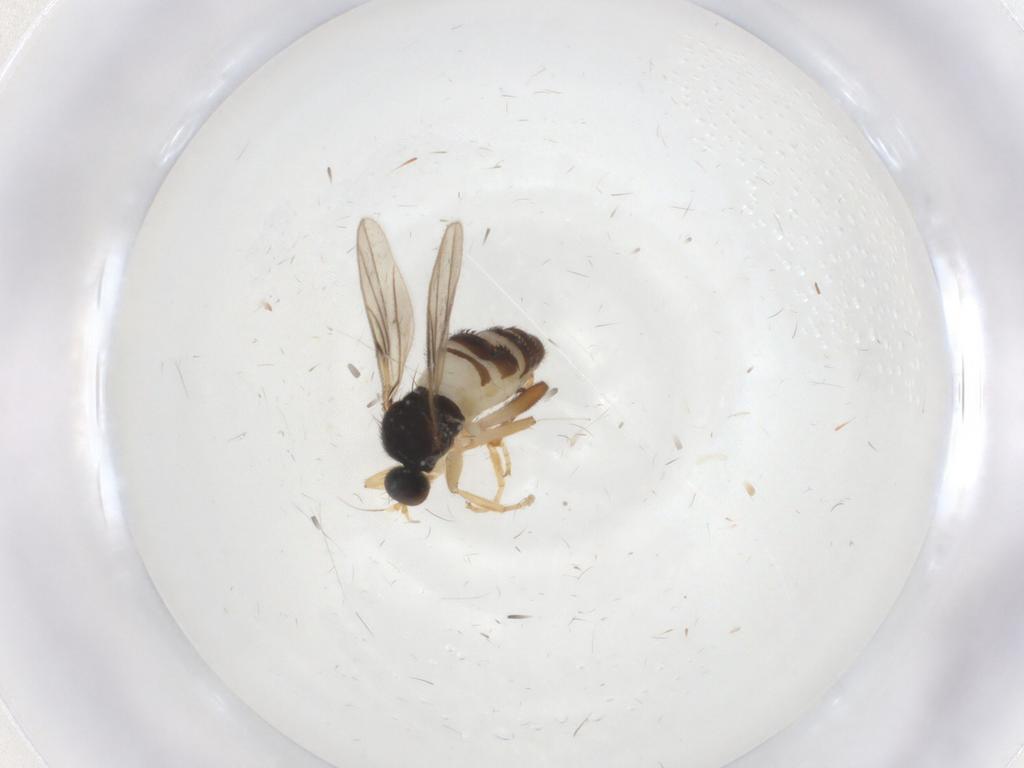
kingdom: Animalia
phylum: Arthropoda
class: Insecta
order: Diptera
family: Hybotidae
